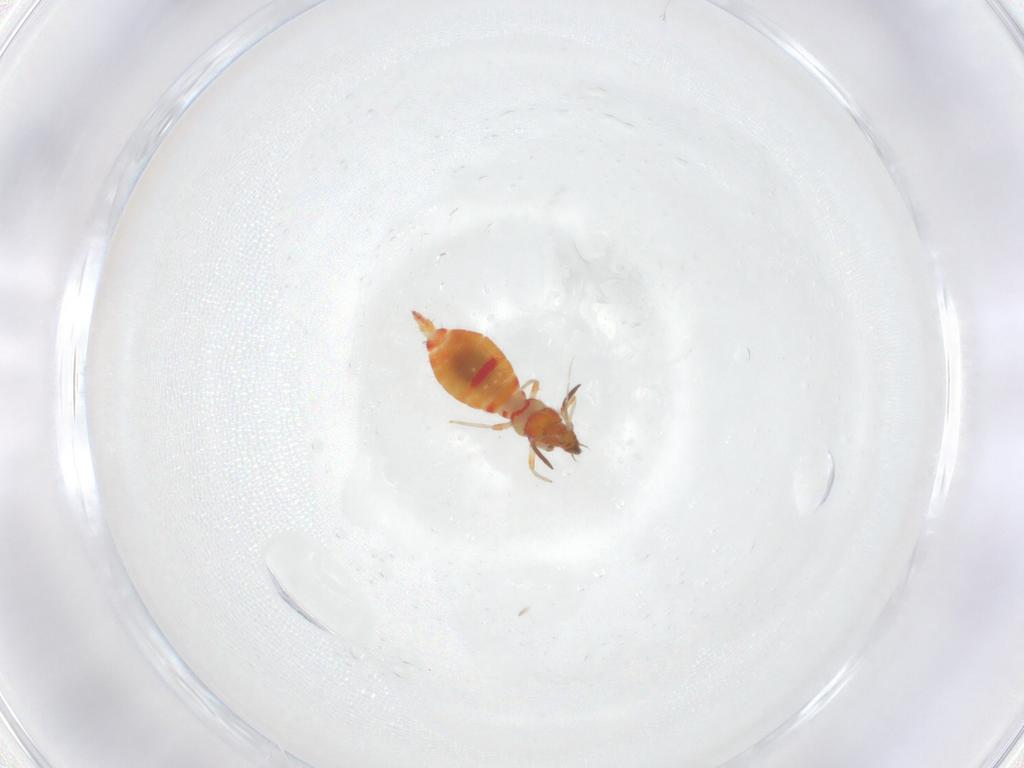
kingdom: Animalia
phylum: Arthropoda
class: Insecta
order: Thysanoptera
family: Aeolothripidae
